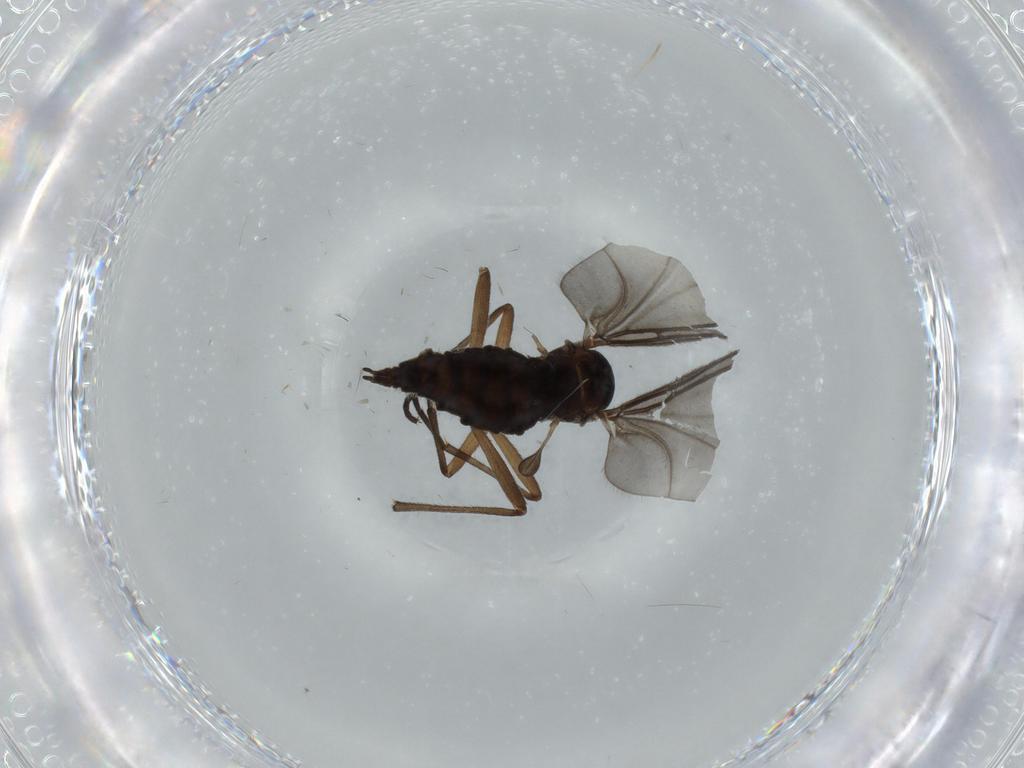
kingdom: Animalia
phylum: Arthropoda
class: Insecta
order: Diptera
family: Sciaridae
